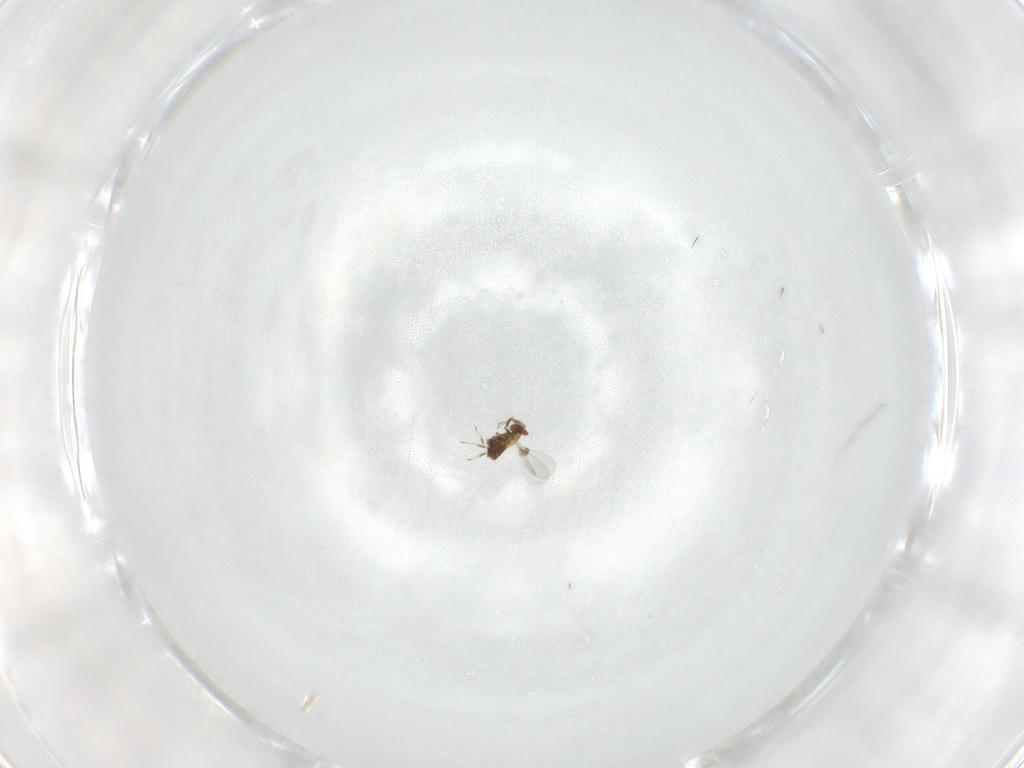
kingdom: Animalia
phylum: Arthropoda
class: Insecta
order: Hymenoptera
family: Trichogrammatidae
